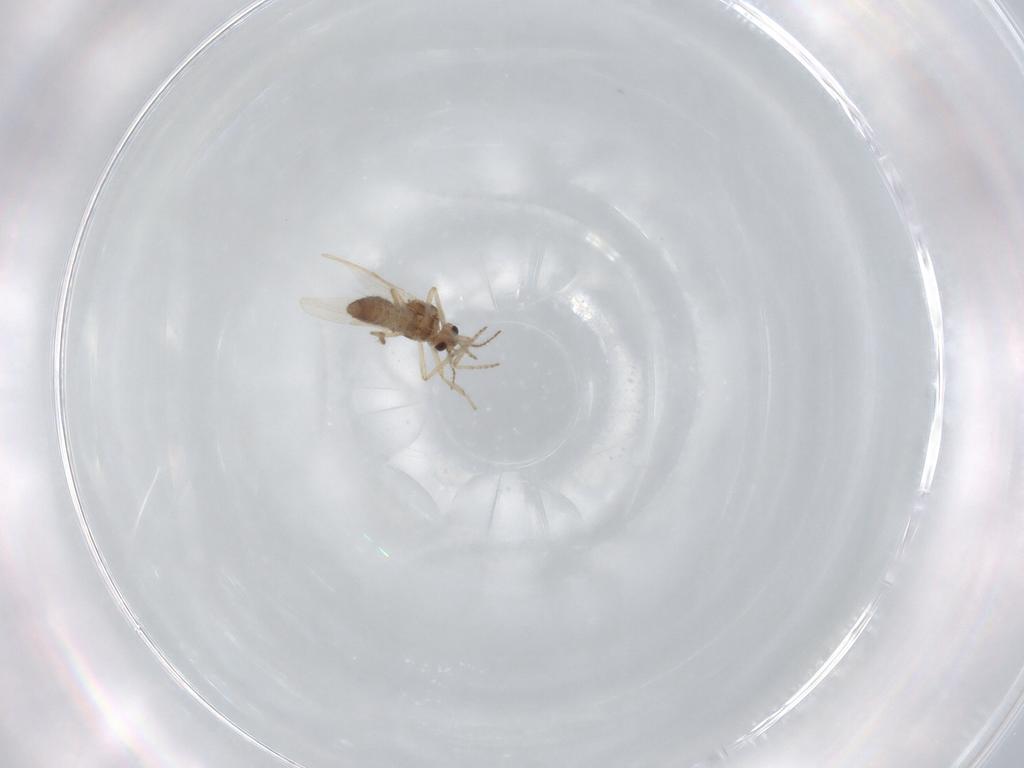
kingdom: Animalia
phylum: Arthropoda
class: Insecta
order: Diptera
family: Ceratopogonidae
